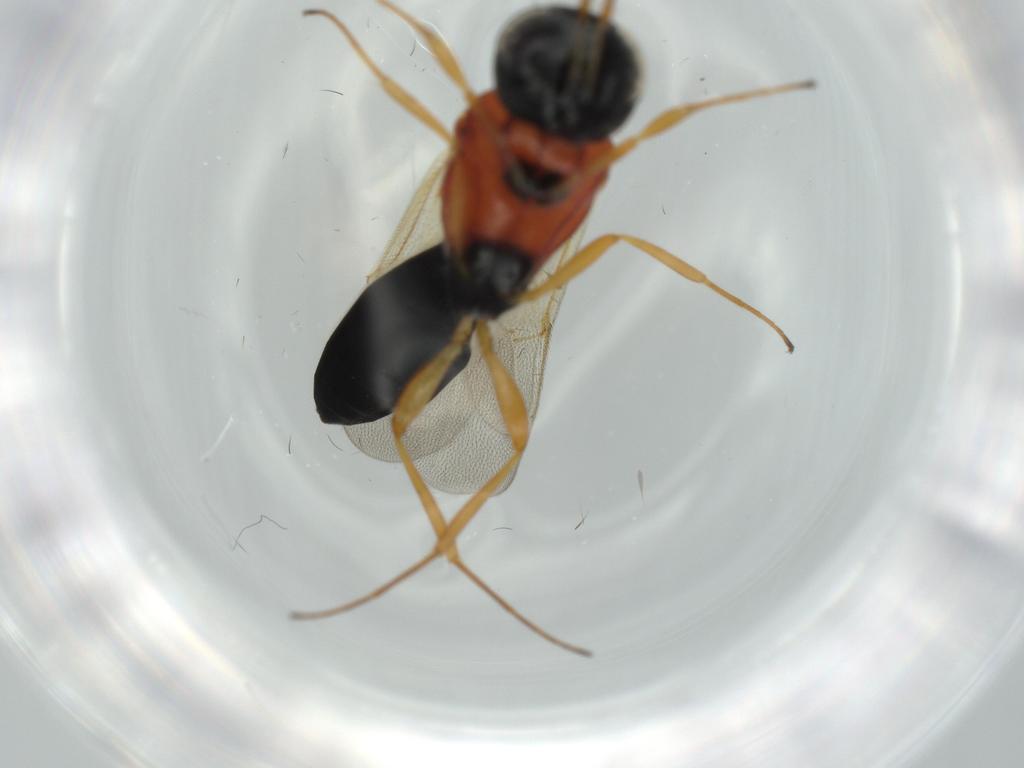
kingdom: Animalia
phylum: Arthropoda
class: Insecta
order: Hymenoptera
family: Scelionidae
